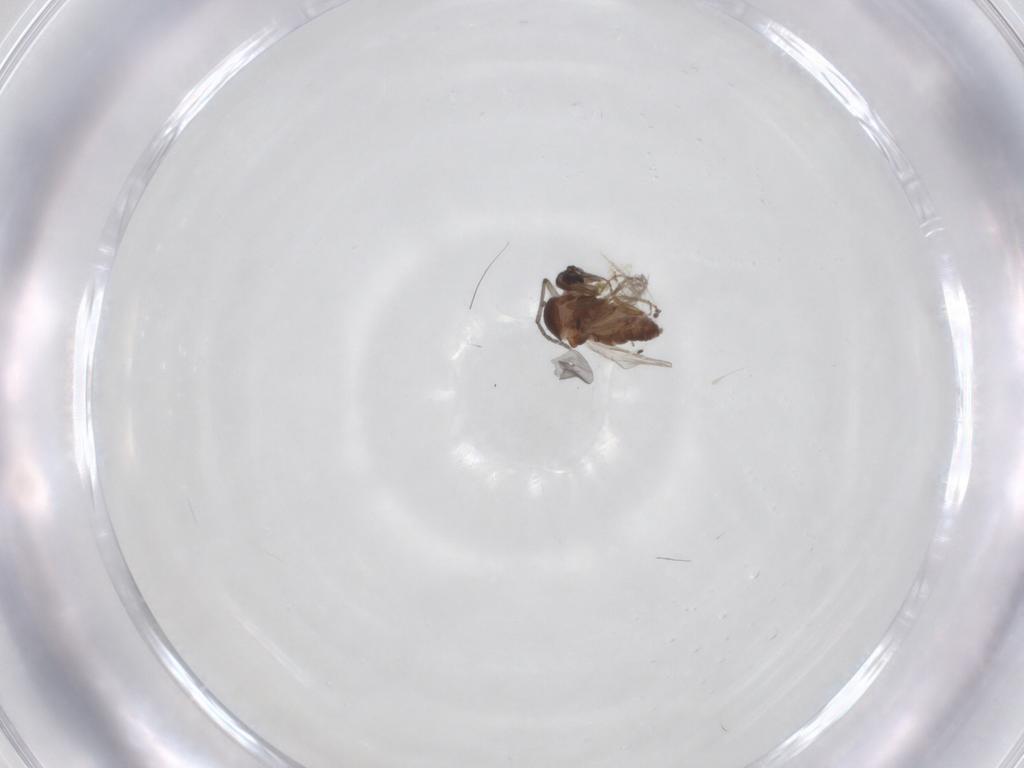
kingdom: Animalia
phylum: Arthropoda
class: Insecta
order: Diptera
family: Sciaridae
